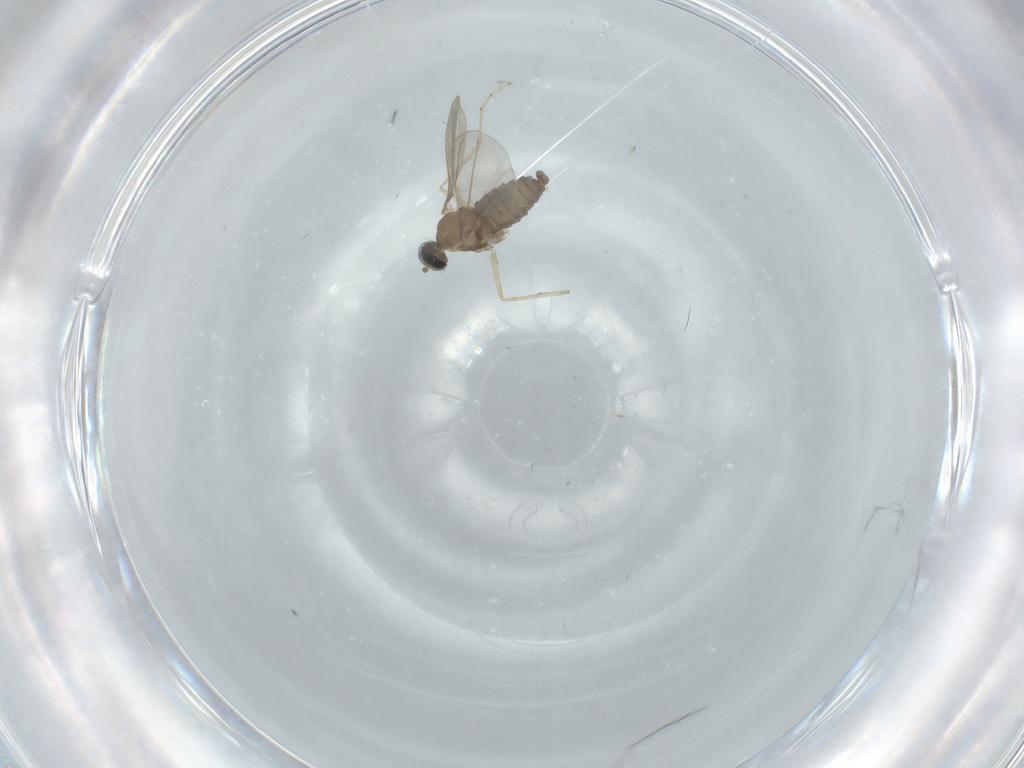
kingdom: Animalia
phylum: Arthropoda
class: Insecta
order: Diptera
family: Cecidomyiidae
